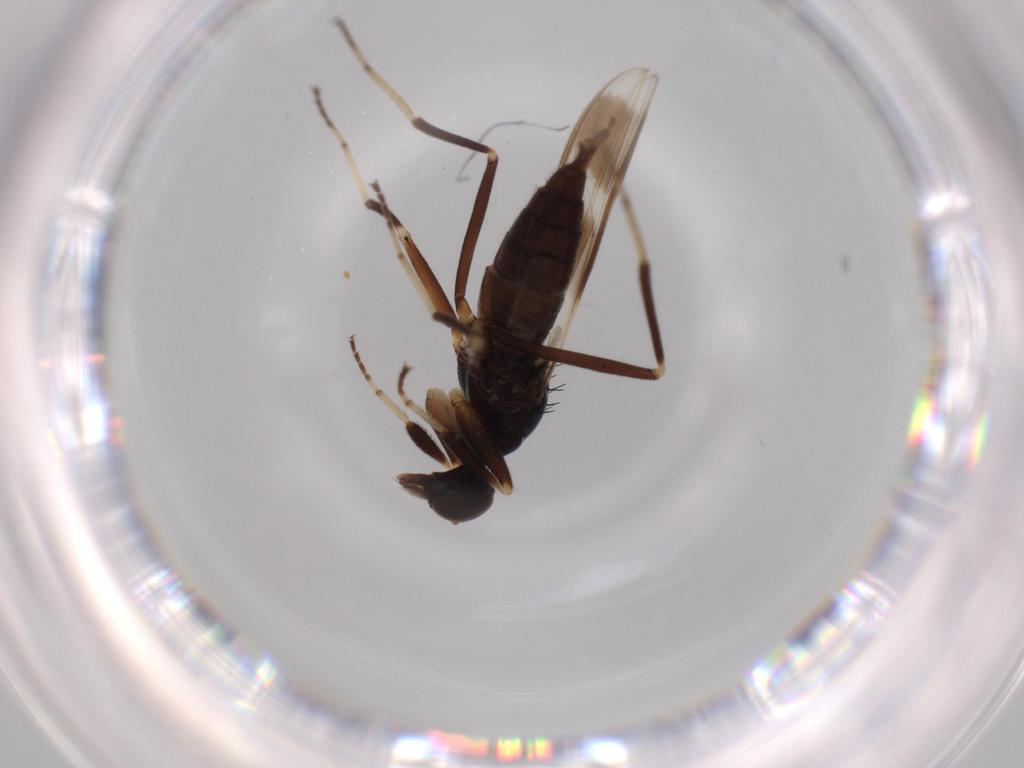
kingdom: Animalia
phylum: Arthropoda
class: Insecta
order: Diptera
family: Hybotidae
